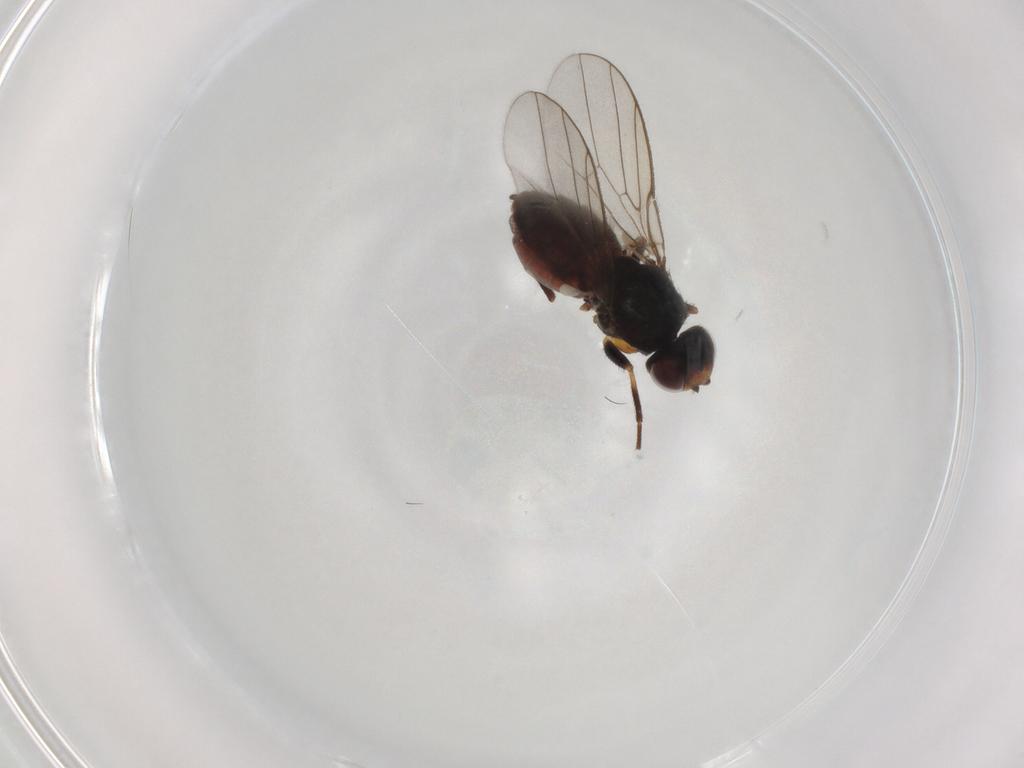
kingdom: Animalia
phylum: Arthropoda
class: Insecta
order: Diptera
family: Chloropidae
